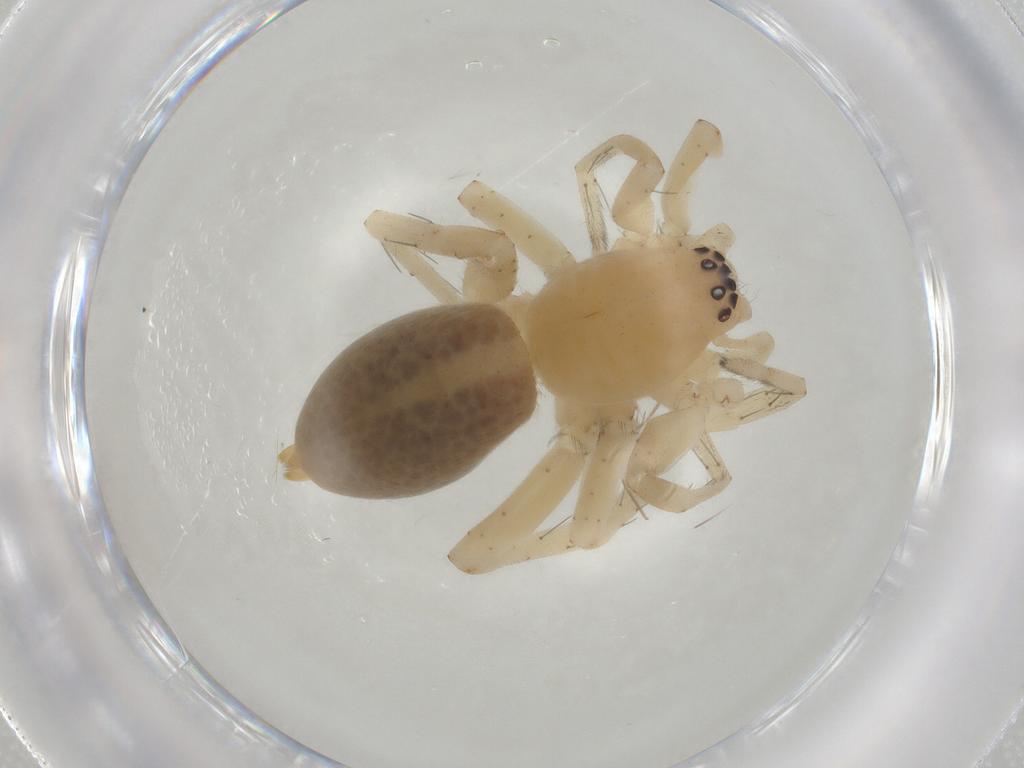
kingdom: Animalia
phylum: Arthropoda
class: Arachnida
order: Araneae
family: Clubionidae
